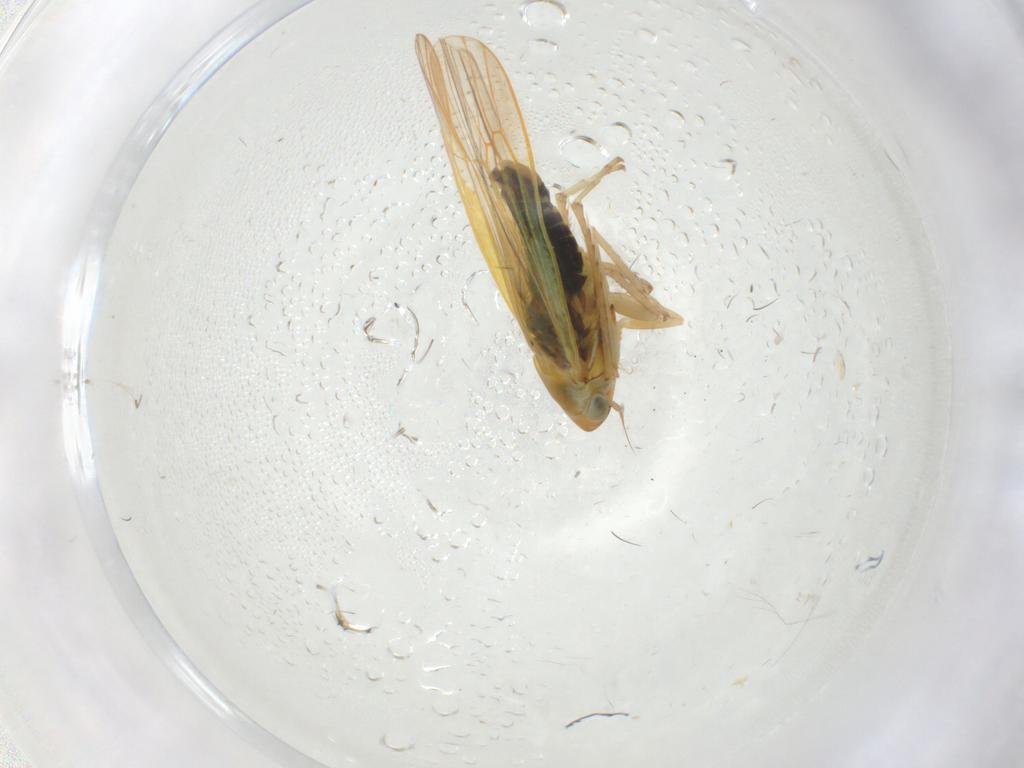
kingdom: Animalia
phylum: Arthropoda
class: Insecta
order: Hemiptera
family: Cicadellidae
